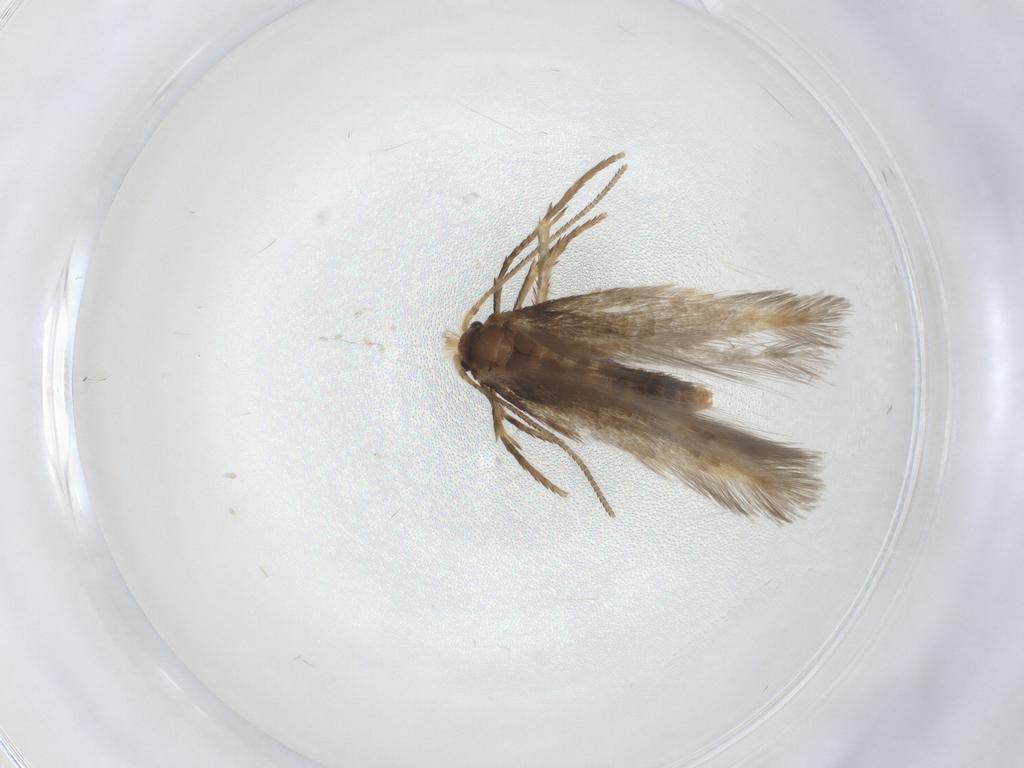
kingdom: Animalia
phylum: Arthropoda
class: Insecta
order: Lepidoptera
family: Nepticulidae
